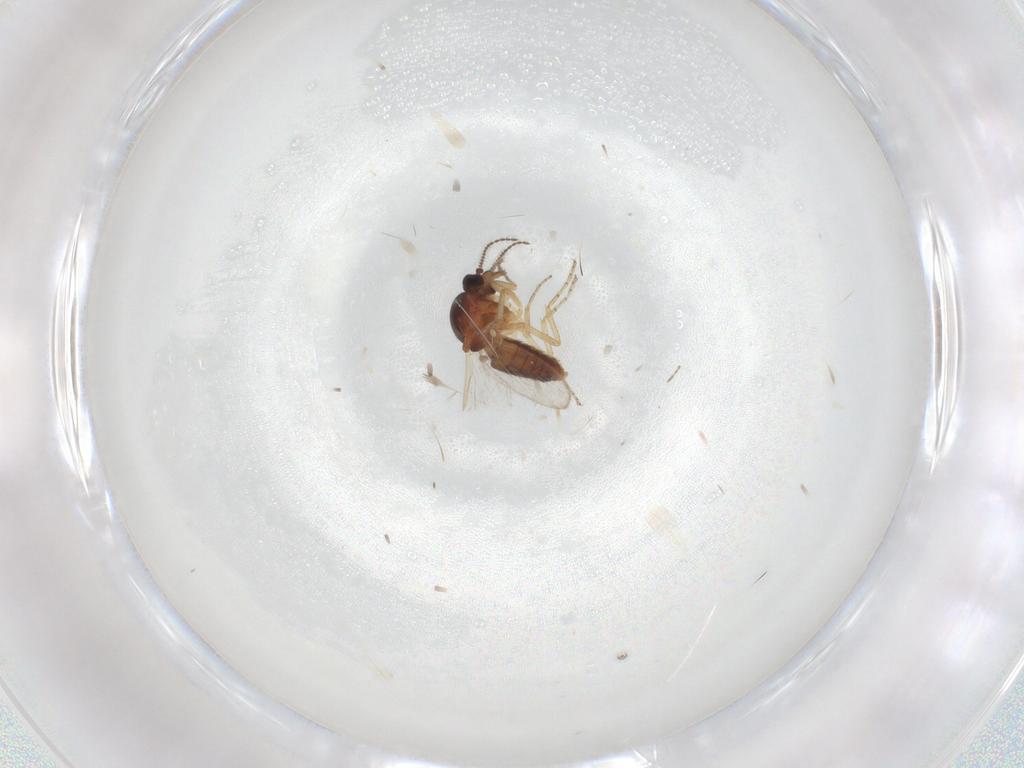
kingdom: Animalia
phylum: Arthropoda
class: Insecta
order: Diptera
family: Ceratopogonidae
